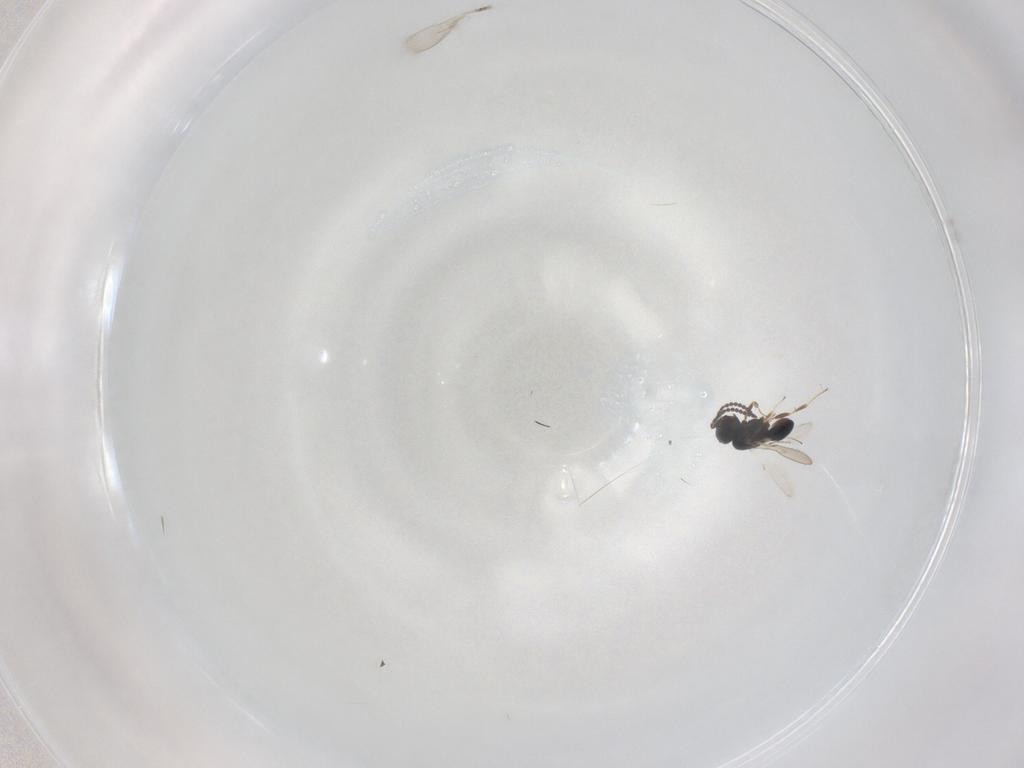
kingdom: Animalia
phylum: Arthropoda
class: Insecta
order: Hymenoptera
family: Scelionidae
